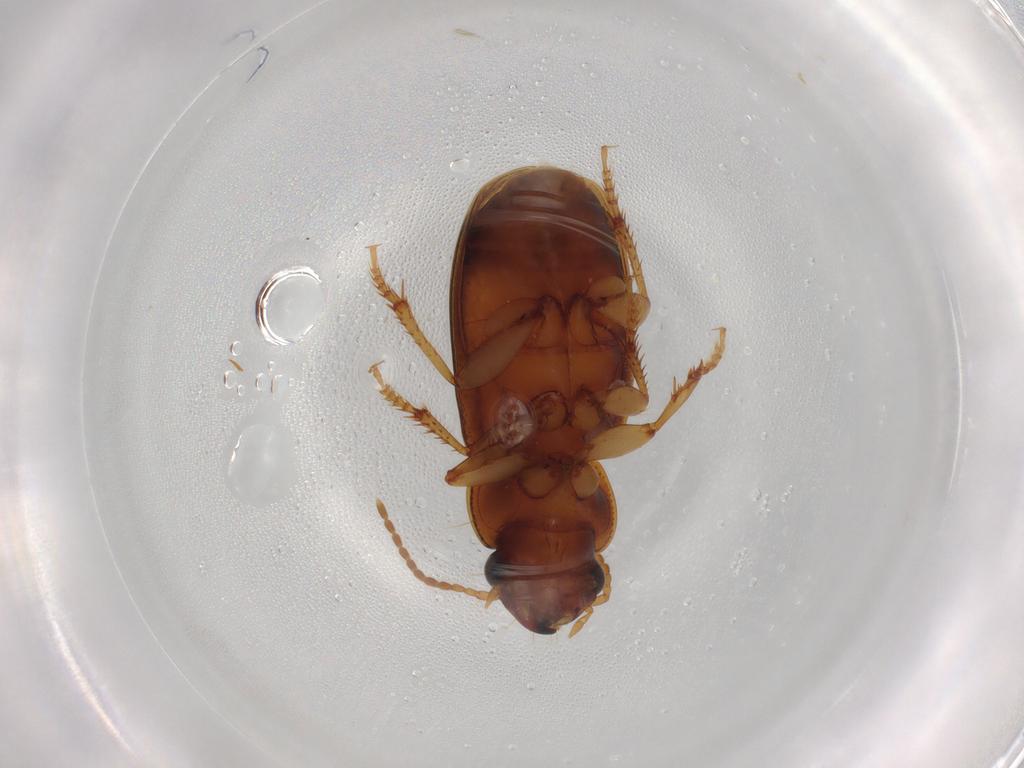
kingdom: Animalia
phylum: Arthropoda
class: Insecta
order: Coleoptera
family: Carabidae
